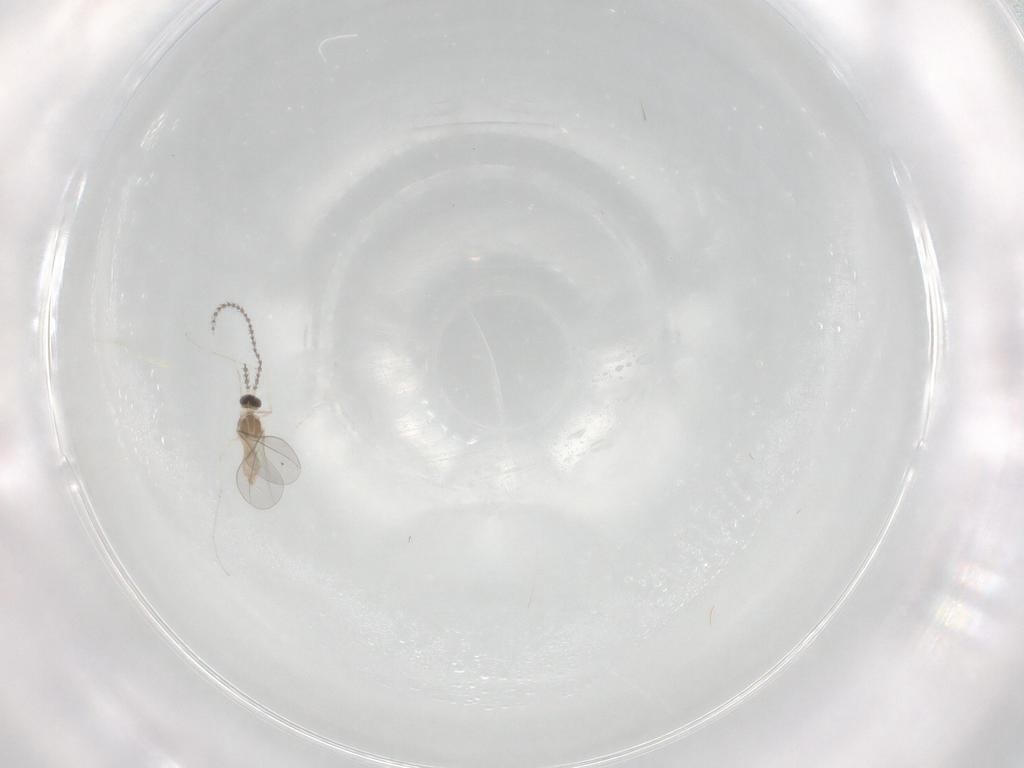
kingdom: Animalia
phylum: Arthropoda
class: Insecta
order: Diptera
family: Cecidomyiidae
